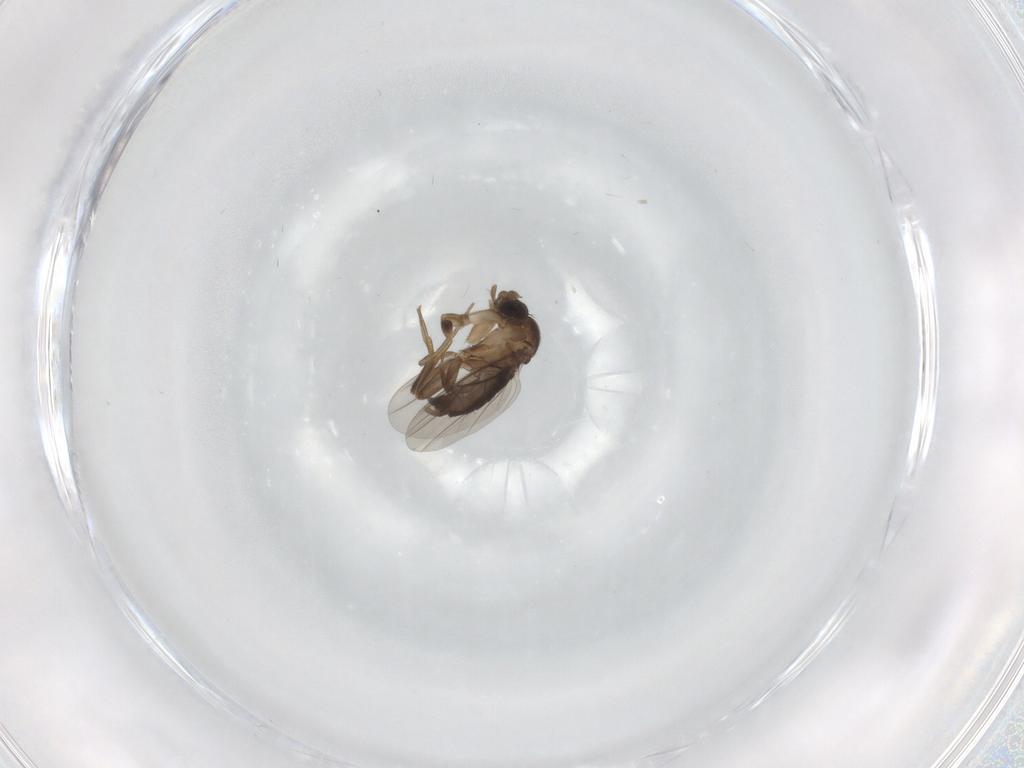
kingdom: Animalia
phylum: Arthropoda
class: Insecta
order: Diptera
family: Phoridae
